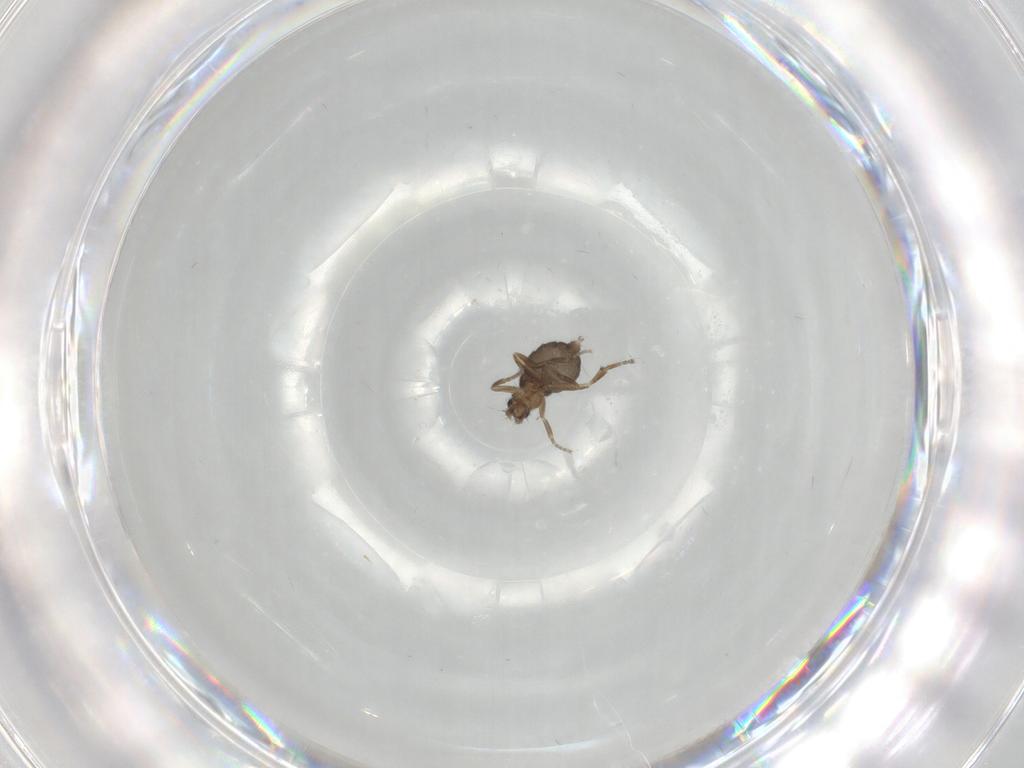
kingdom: Animalia
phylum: Arthropoda
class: Insecta
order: Diptera
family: Phoridae
